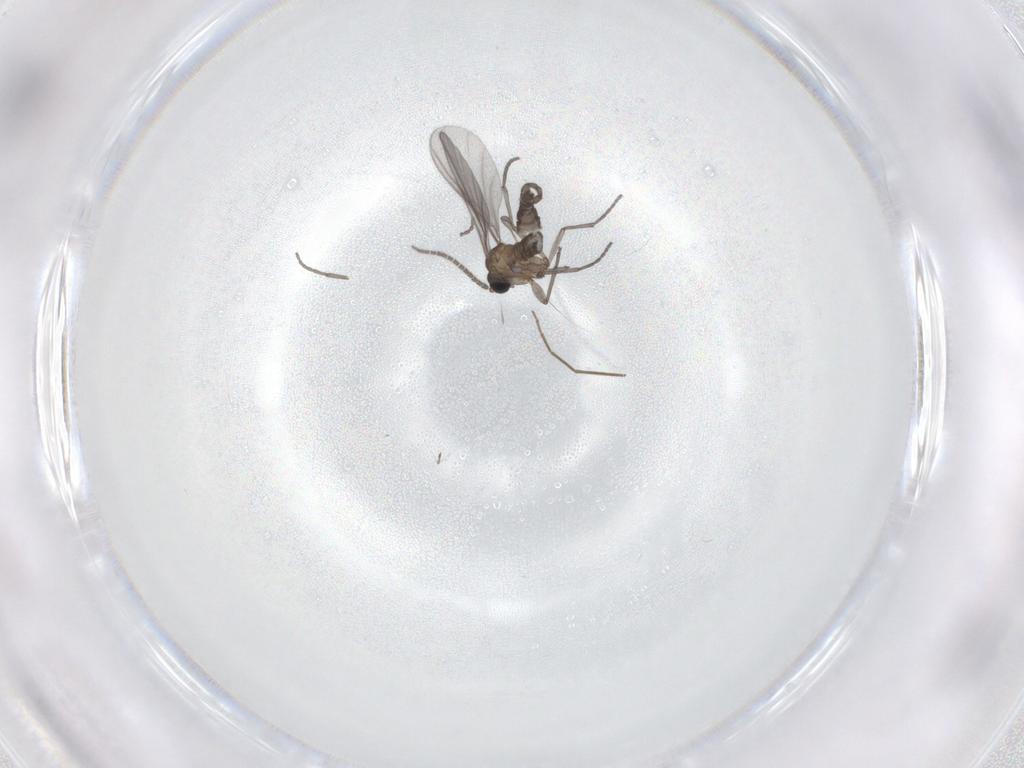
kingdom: Animalia
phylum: Arthropoda
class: Insecta
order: Diptera
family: Sciaridae
